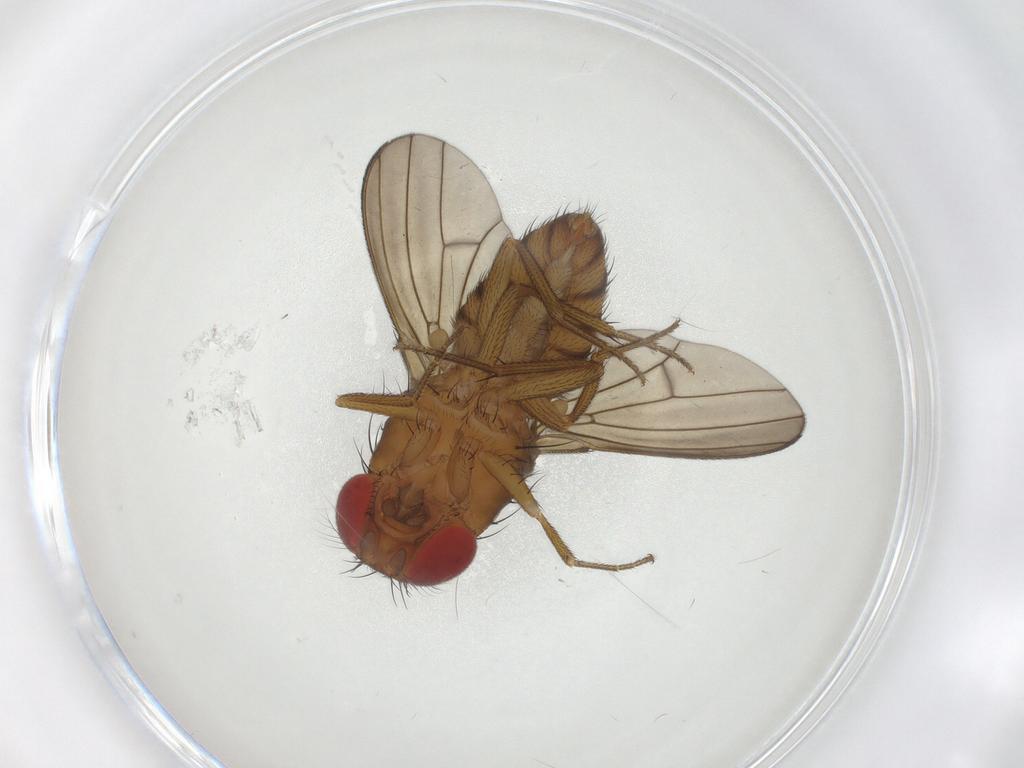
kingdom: Animalia
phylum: Arthropoda
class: Insecta
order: Diptera
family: Drosophilidae
